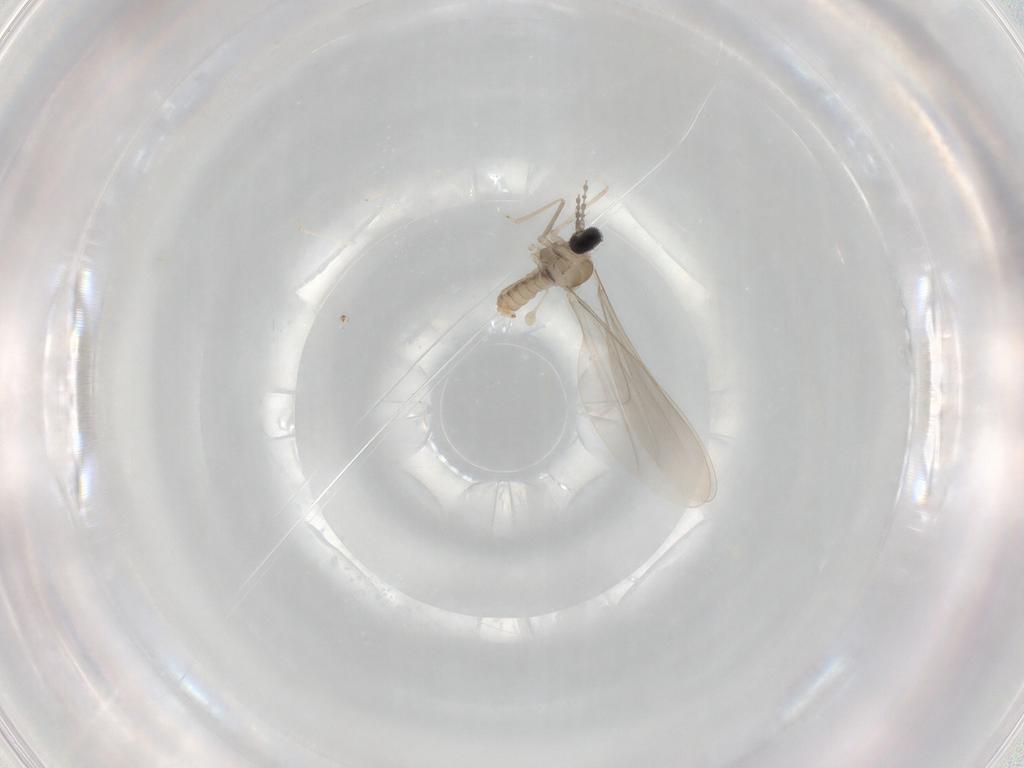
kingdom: Animalia
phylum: Arthropoda
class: Insecta
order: Diptera
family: Cecidomyiidae
